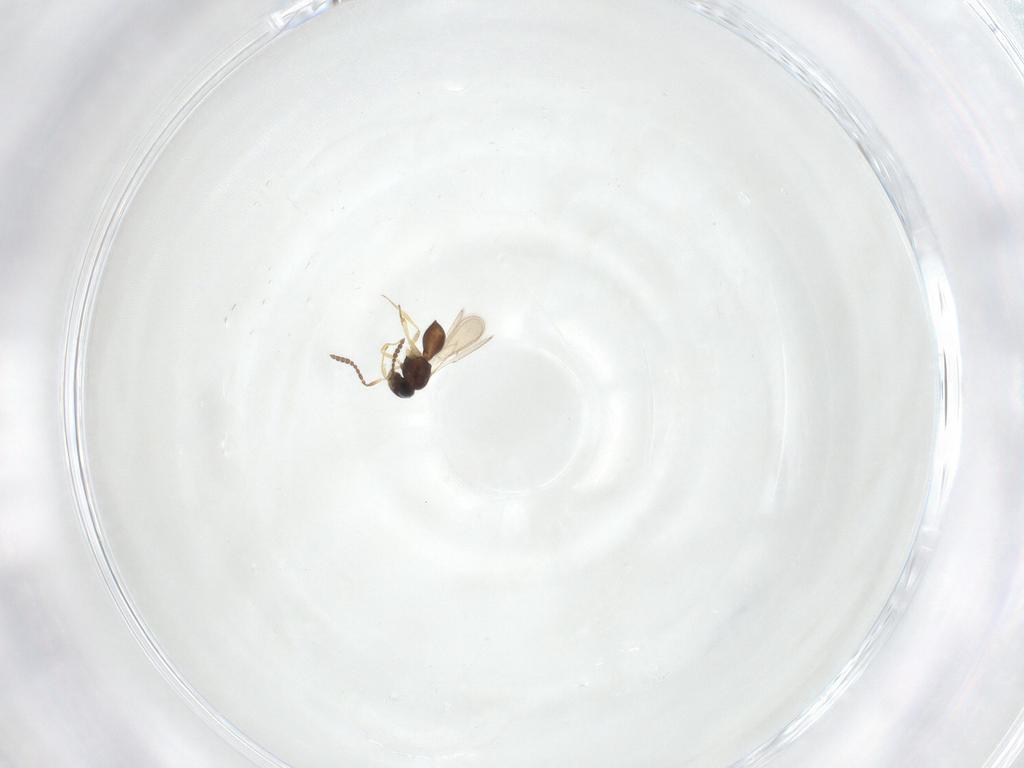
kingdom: Animalia
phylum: Arthropoda
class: Insecta
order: Hymenoptera
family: Scelionidae
